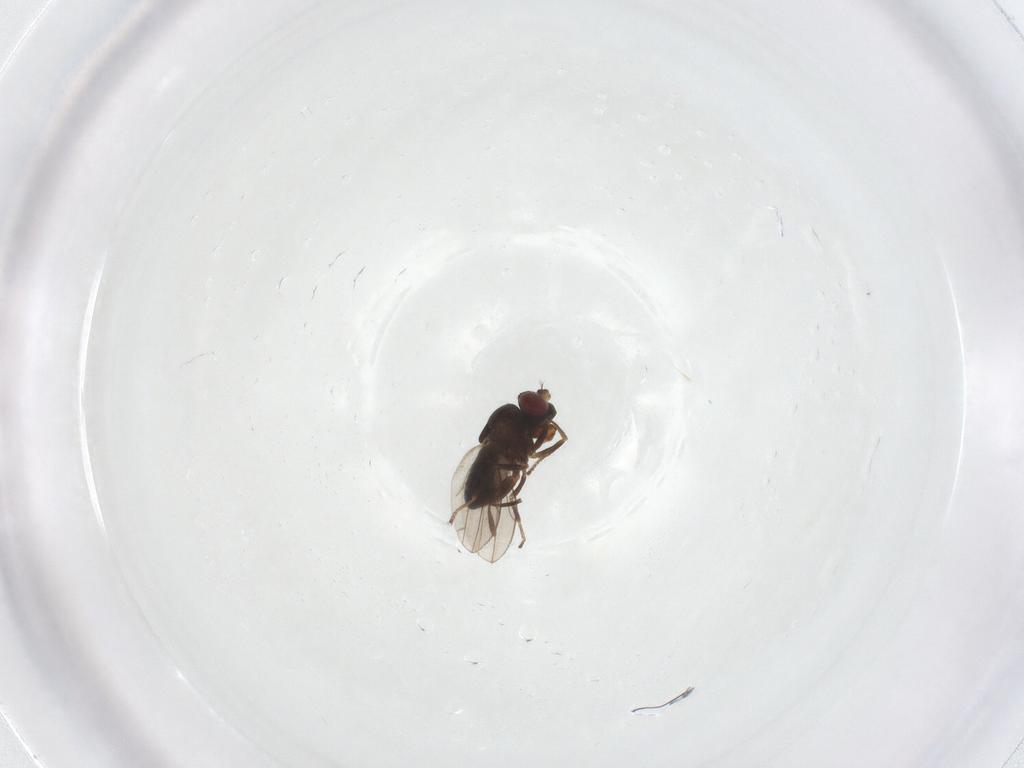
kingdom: Animalia
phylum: Arthropoda
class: Insecta
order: Diptera
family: Ephydridae
